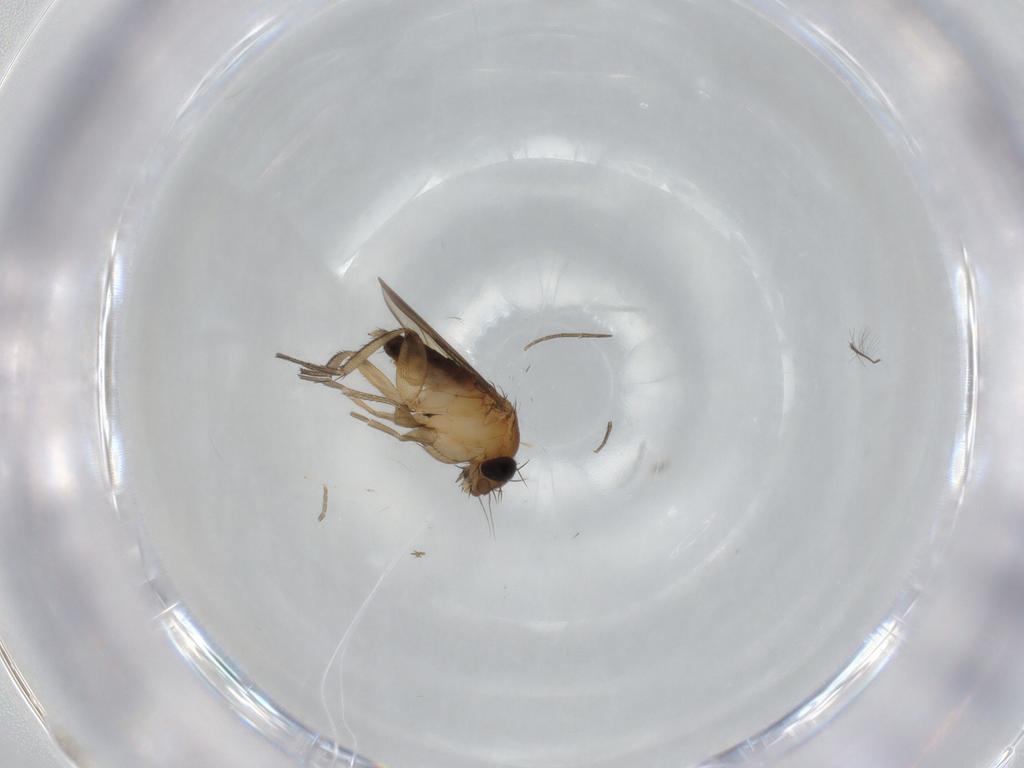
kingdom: Animalia
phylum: Arthropoda
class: Insecta
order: Diptera
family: Phoridae
